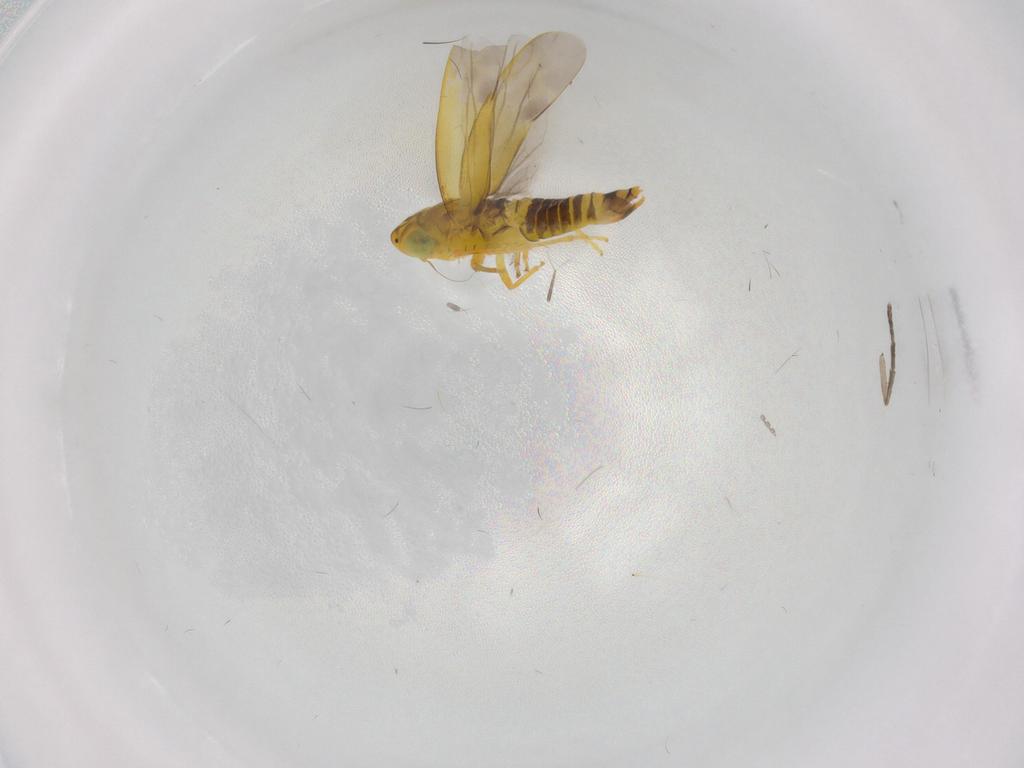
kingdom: Animalia
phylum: Arthropoda
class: Insecta
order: Hemiptera
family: Cicadellidae
